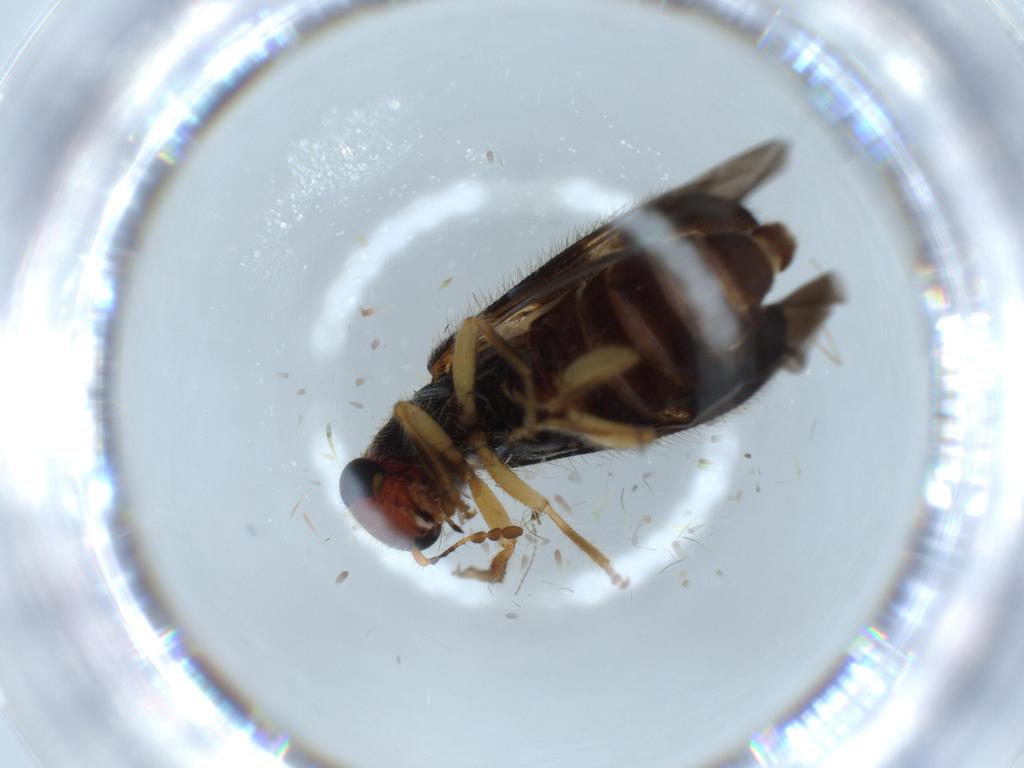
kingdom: Animalia
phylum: Arthropoda
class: Insecta
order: Coleoptera
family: Cleridae
